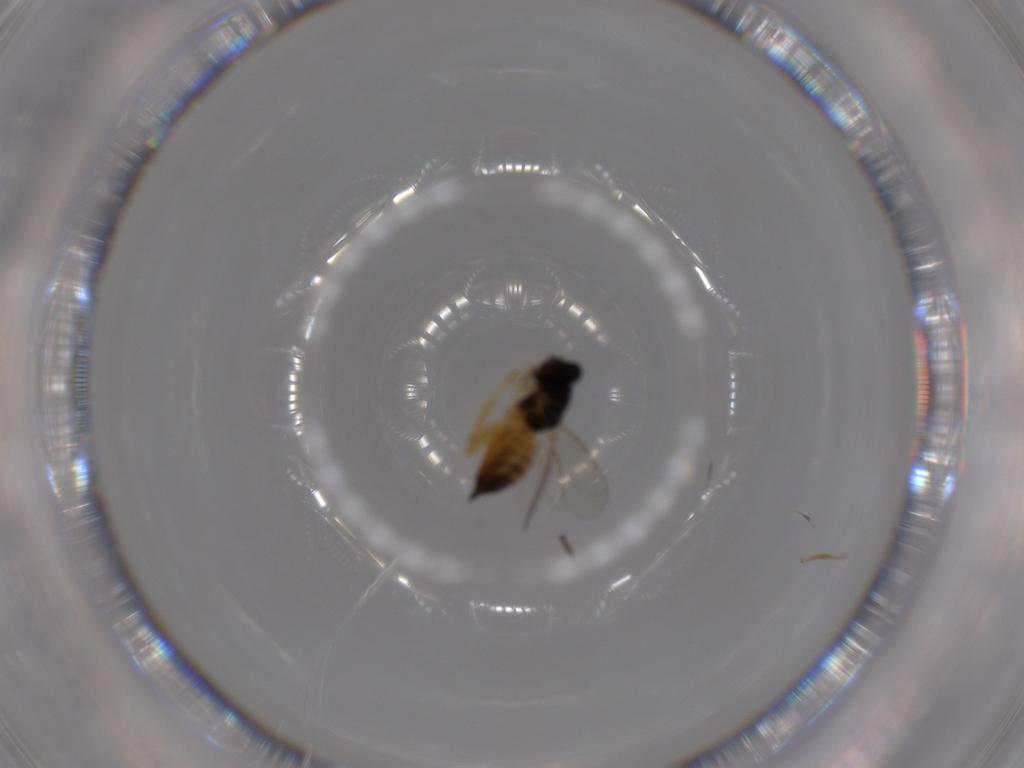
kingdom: Animalia
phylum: Arthropoda
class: Insecta
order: Hymenoptera
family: Eulophidae
